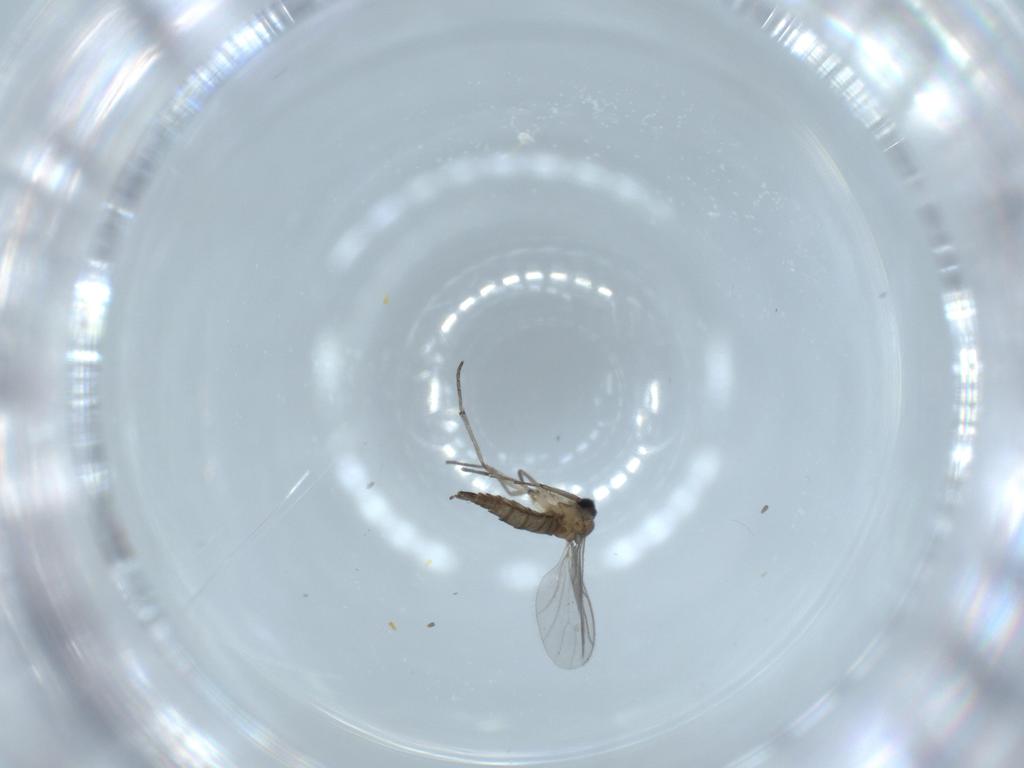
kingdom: Animalia
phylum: Arthropoda
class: Insecta
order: Diptera
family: Sciaridae
